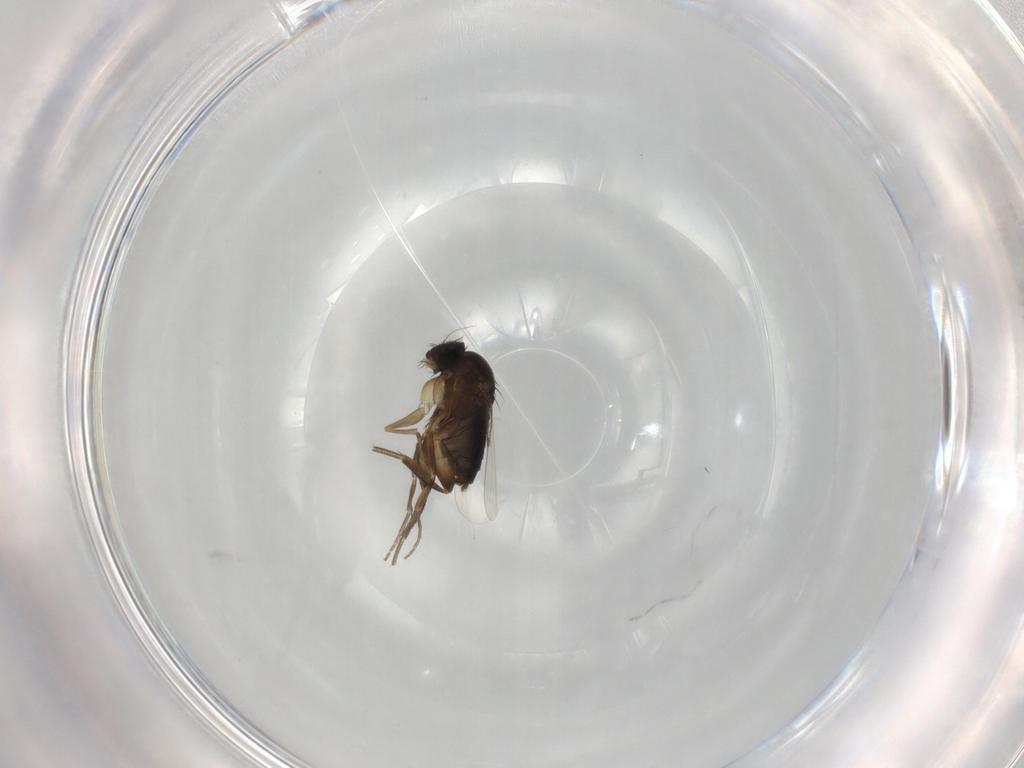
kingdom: Animalia
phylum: Arthropoda
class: Insecta
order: Diptera
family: Phoridae
